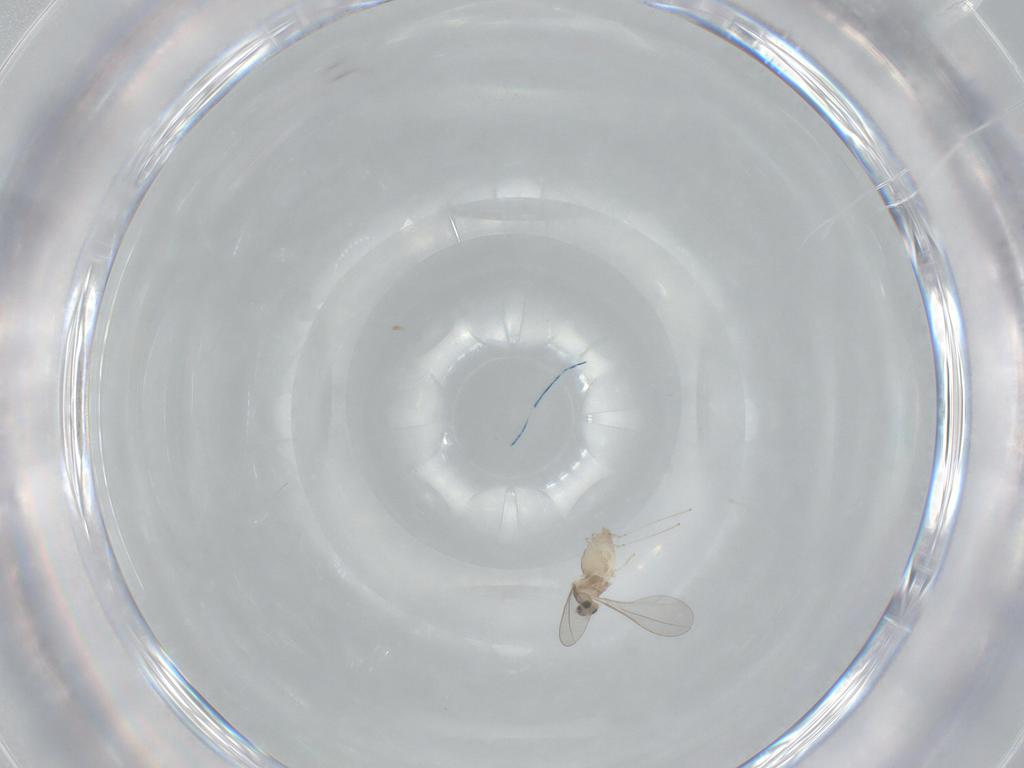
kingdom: Animalia
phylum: Arthropoda
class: Insecta
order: Diptera
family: Cecidomyiidae
